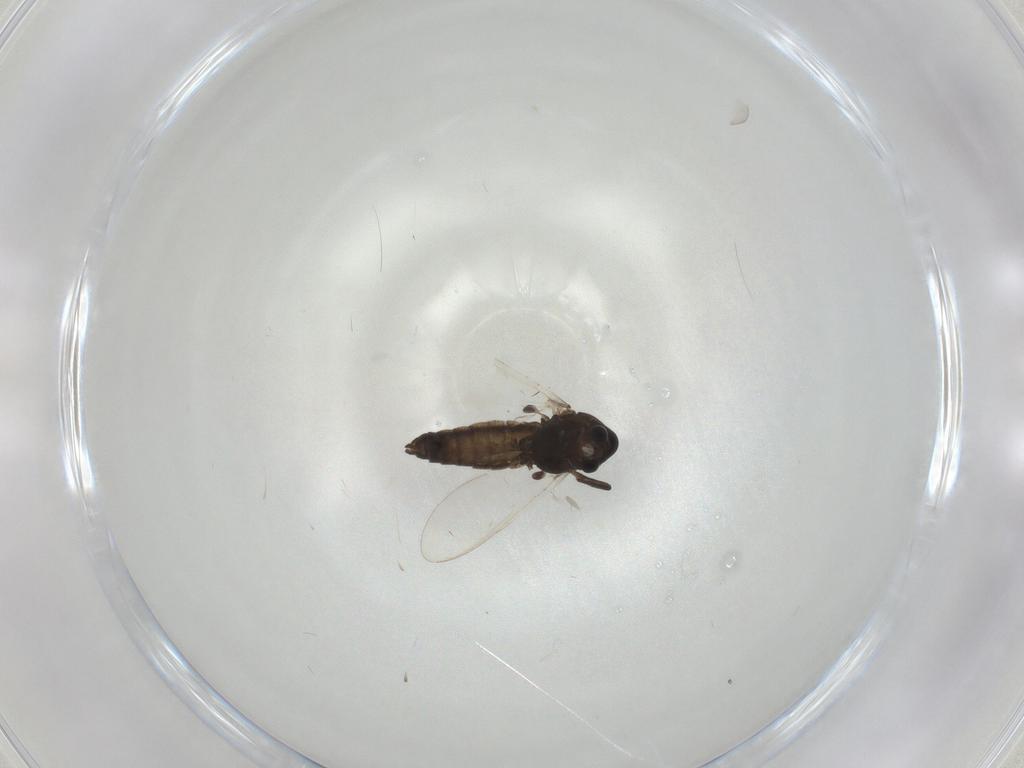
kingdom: Animalia
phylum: Arthropoda
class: Insecta
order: Diptera
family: Chironomidae
